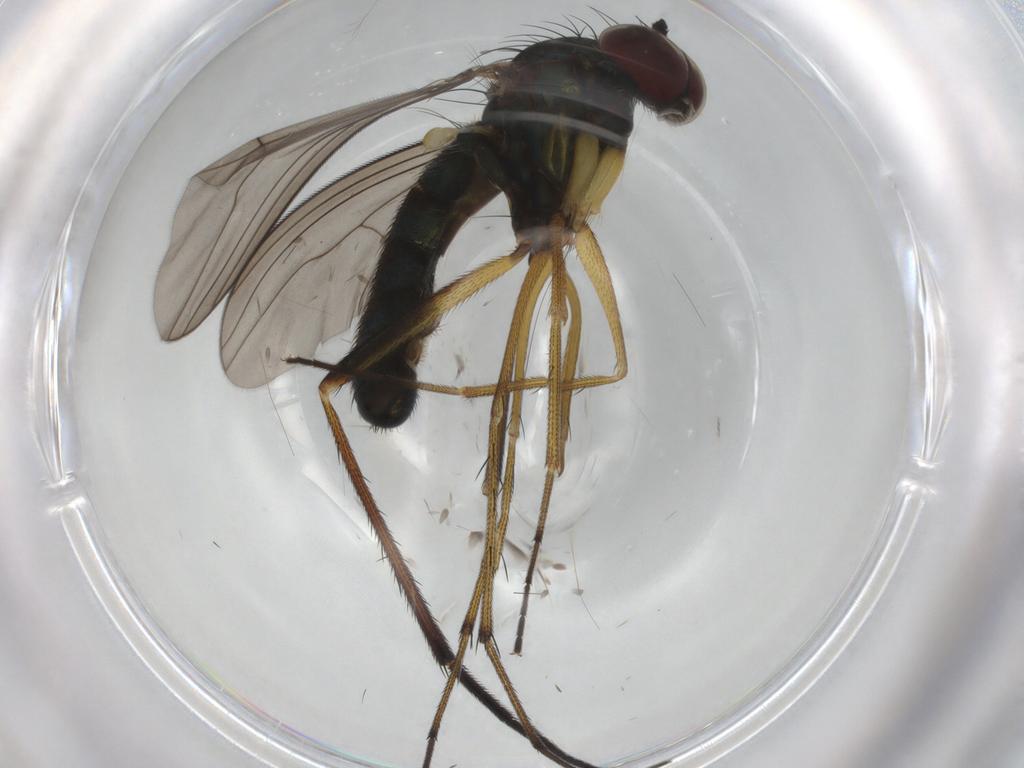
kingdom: Animalia
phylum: Arthropoda
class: Insecta
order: Diptera
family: Dolichopodidae
